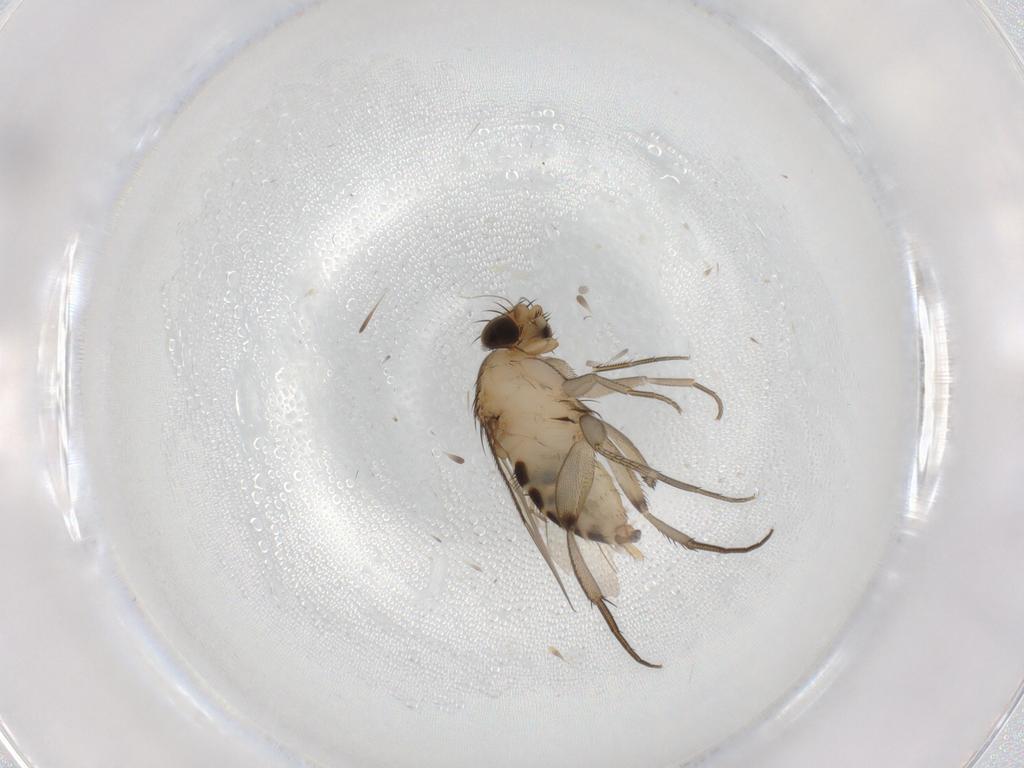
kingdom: Animalia
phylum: Arthropoda
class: Insecta
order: Diptera
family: Phoridae
